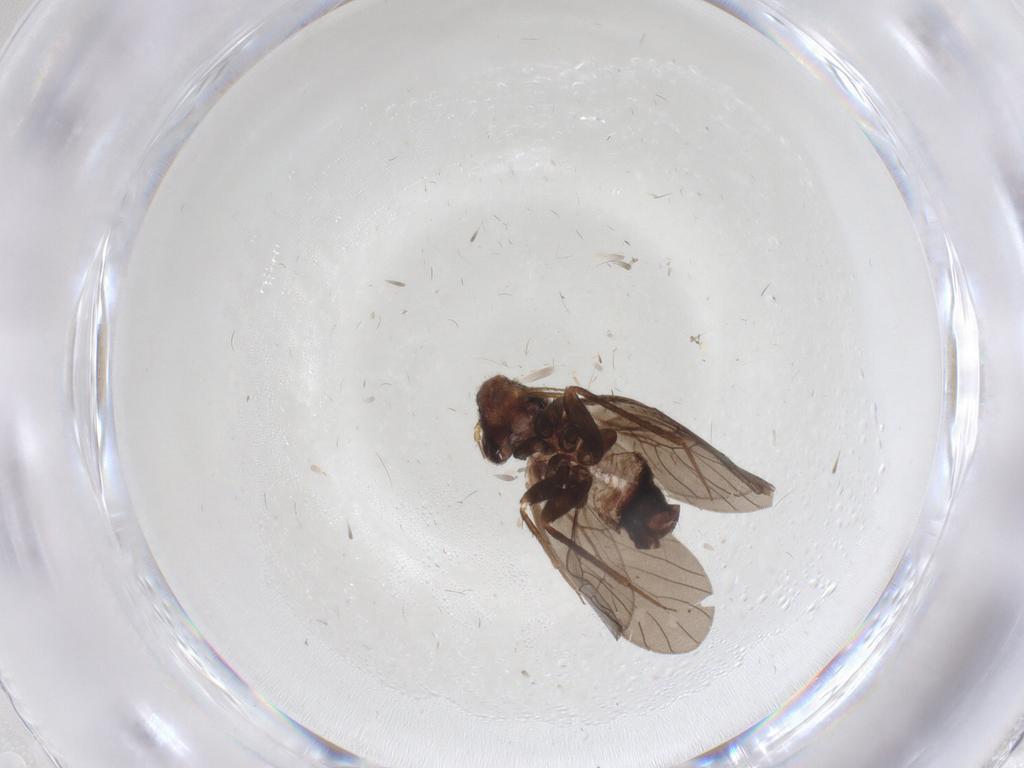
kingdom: Animalia
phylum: Arthropoda
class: Insecta
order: Psocodea
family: Lepidopsocidae
